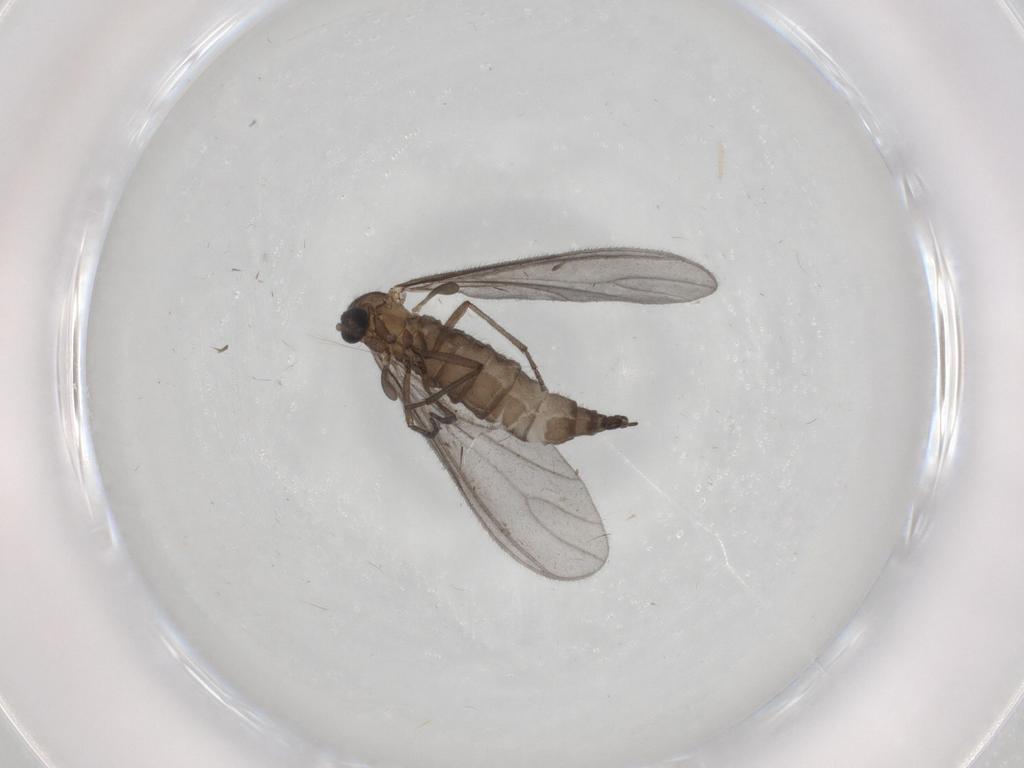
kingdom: Animalia
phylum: Arthropoda
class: Insecta
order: Diptera
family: Sciaridae
